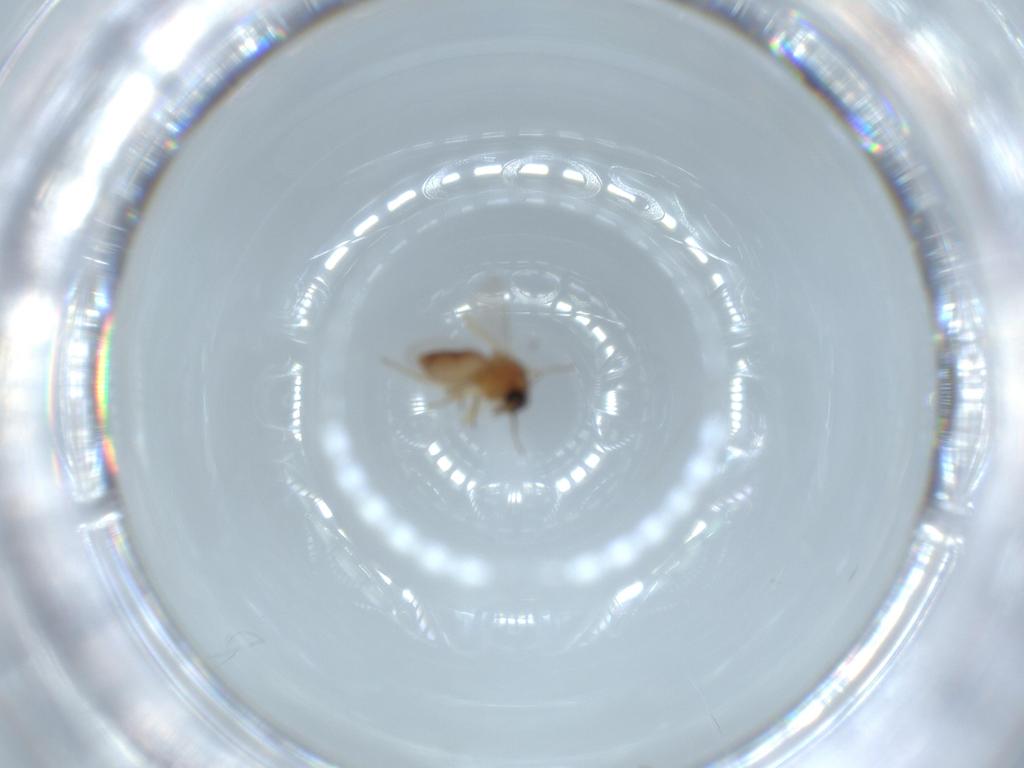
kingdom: Animalia
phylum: Arthropoda
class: Insecta
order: Diptera
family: Ceratopogonidae
